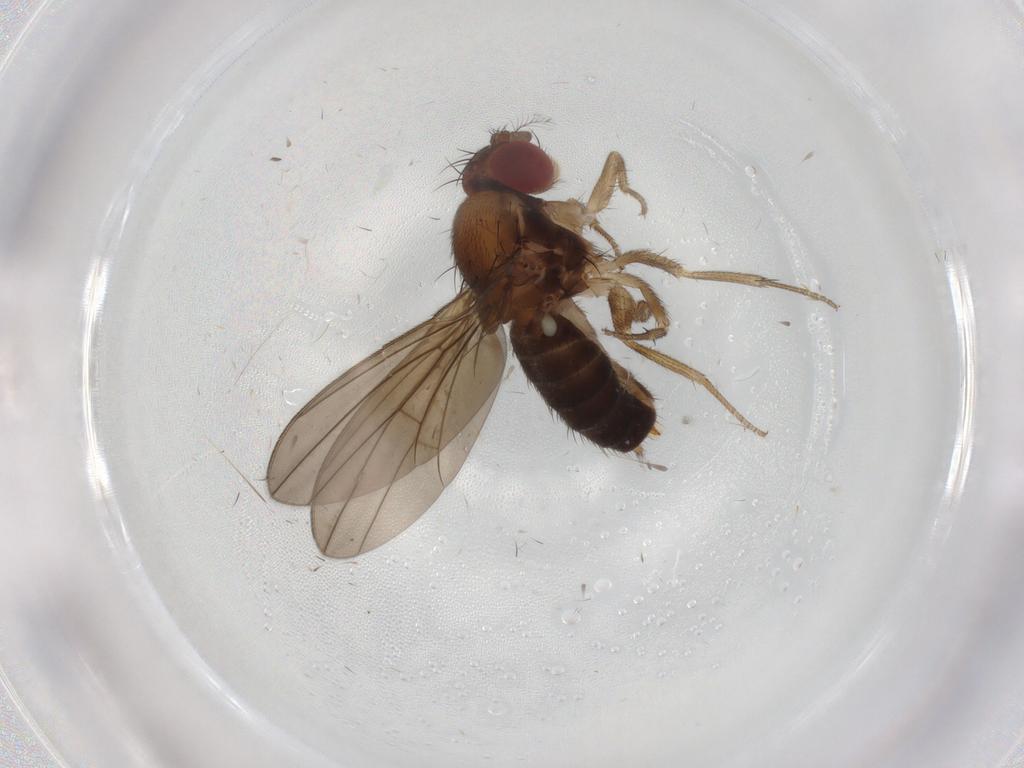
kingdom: Animalia
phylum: Arthropoda
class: Insecta
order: Diptera
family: Drosophilidae
